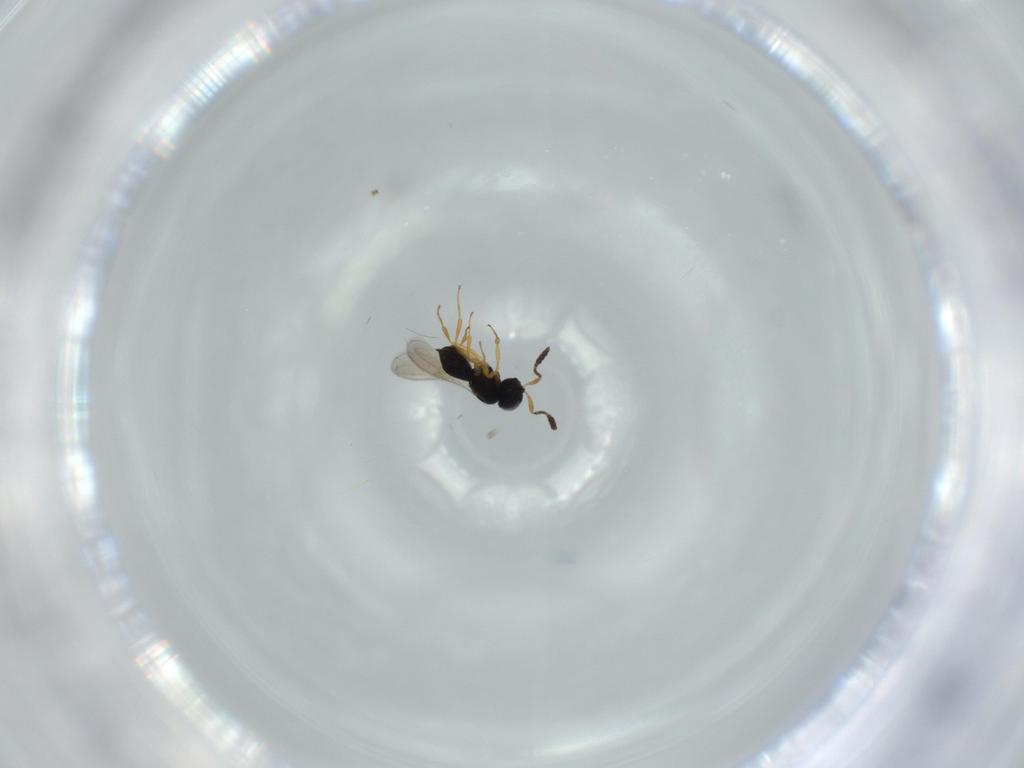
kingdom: Animalia
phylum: Arthropoda
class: Insecta
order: Hymenoptera
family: Scelionidae
